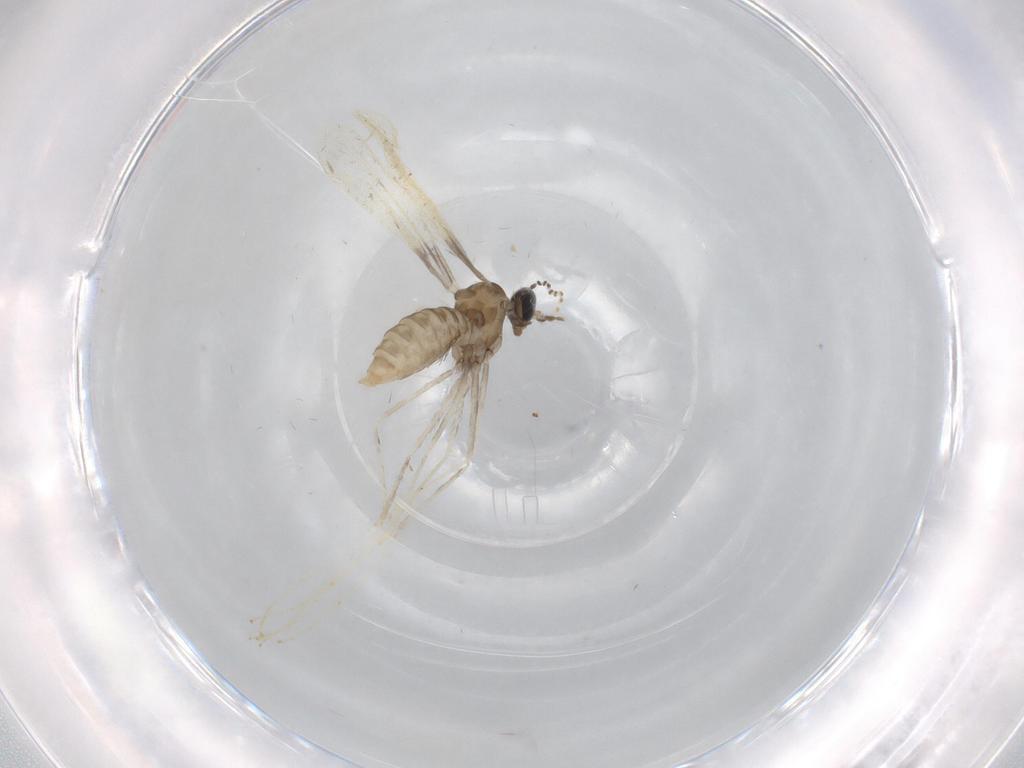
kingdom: Animalia
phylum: Arthropoda
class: Insecta
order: Diptera
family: Cecidomyiidae
